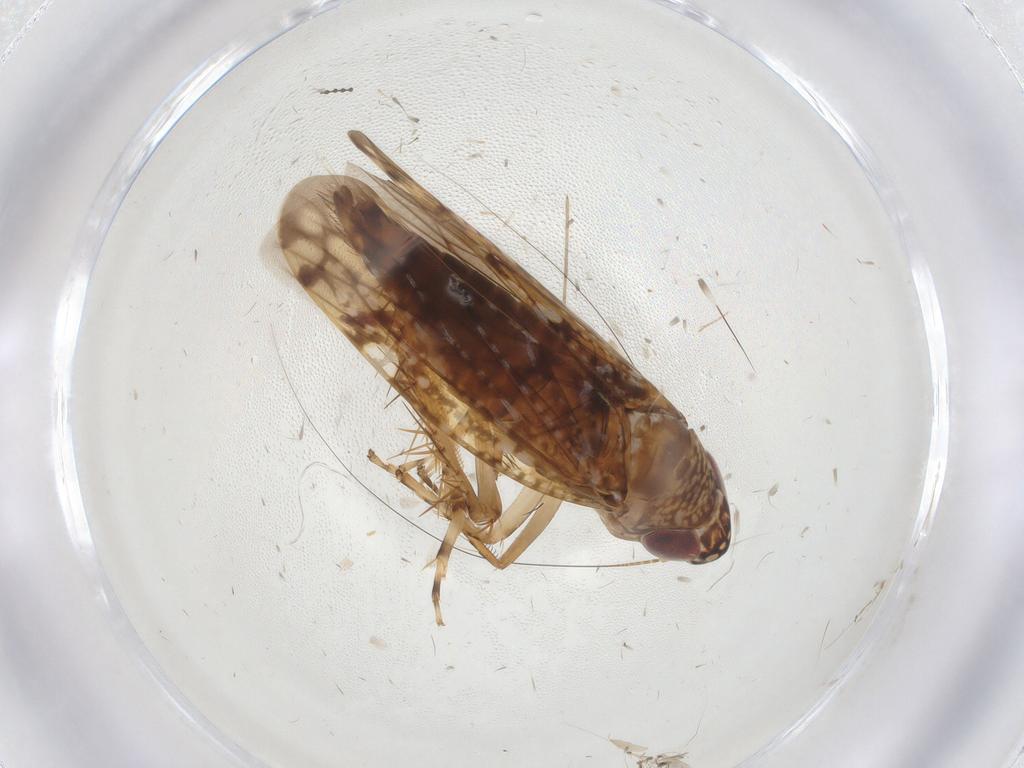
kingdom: Animalia
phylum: Arthropoda
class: Insecta
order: Hemiptera
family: Cicadellidae
